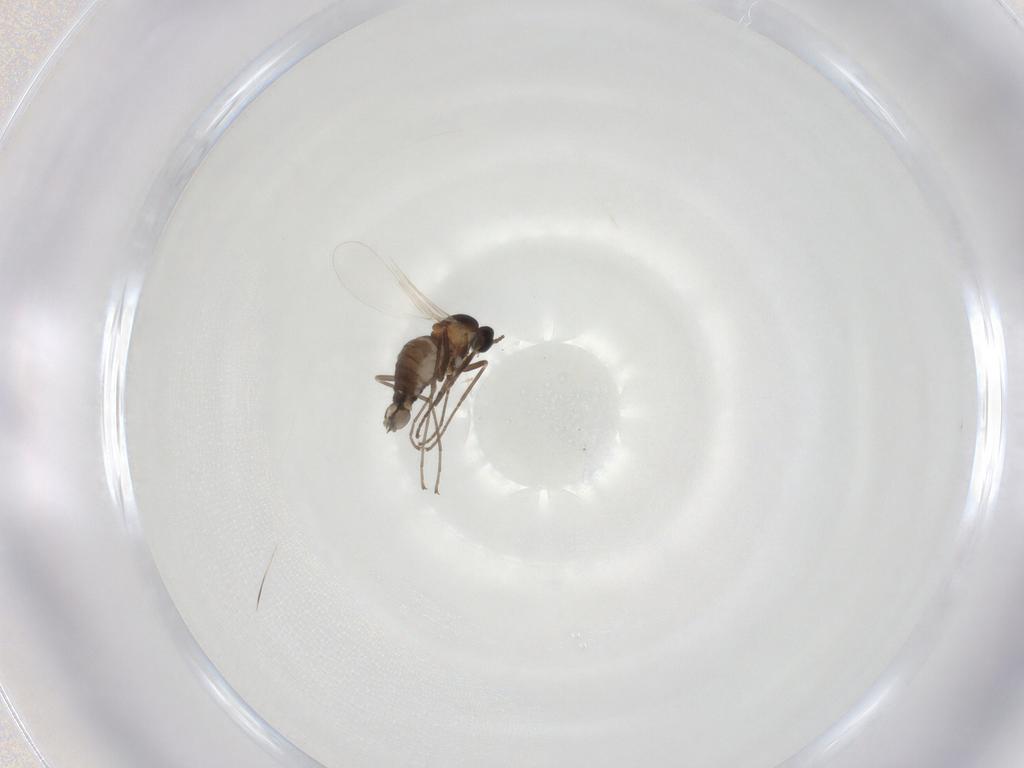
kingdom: Animalia
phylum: Arthropoda
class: Insecta
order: Diptera
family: Cecidomyiidae
